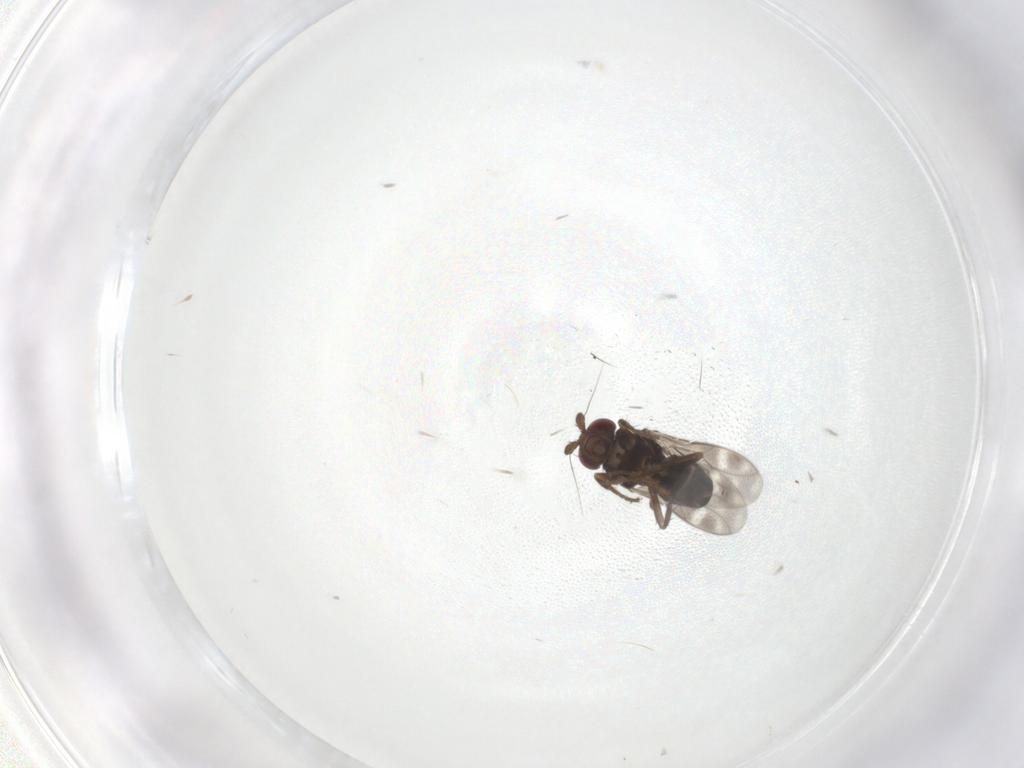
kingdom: Animalia
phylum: Arthropoda
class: Insecta
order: Diptera
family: Sphaeroceridae
